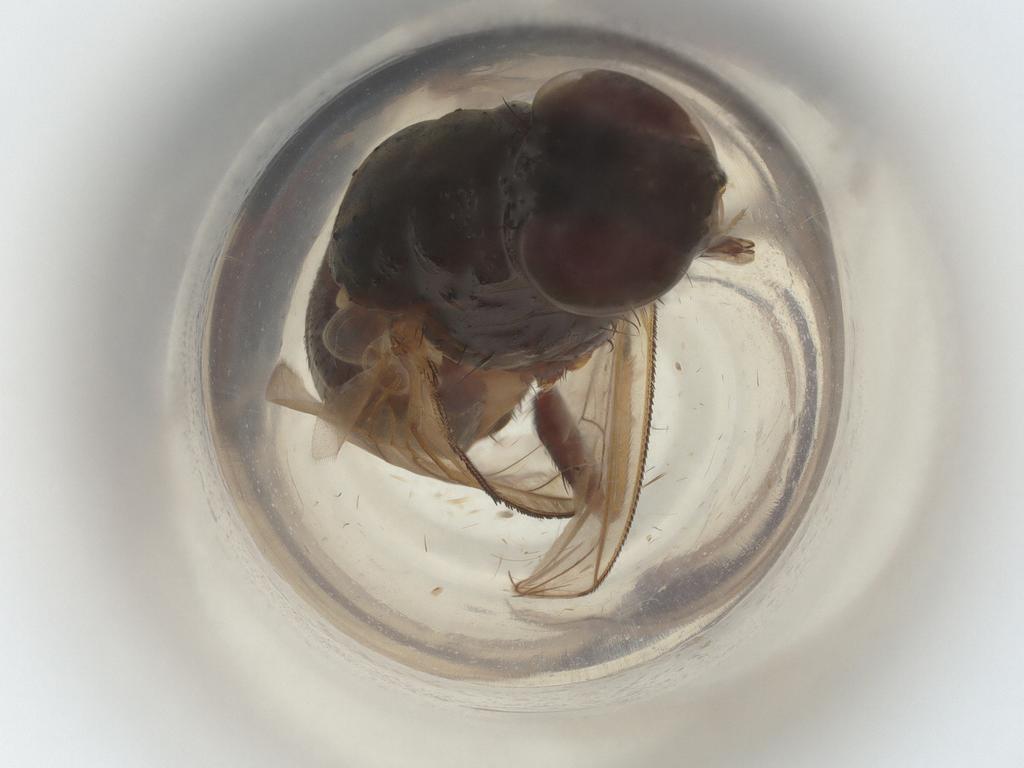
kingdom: Animalia
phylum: Arthropoda
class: Insecta
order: Diptera
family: Muscidae
